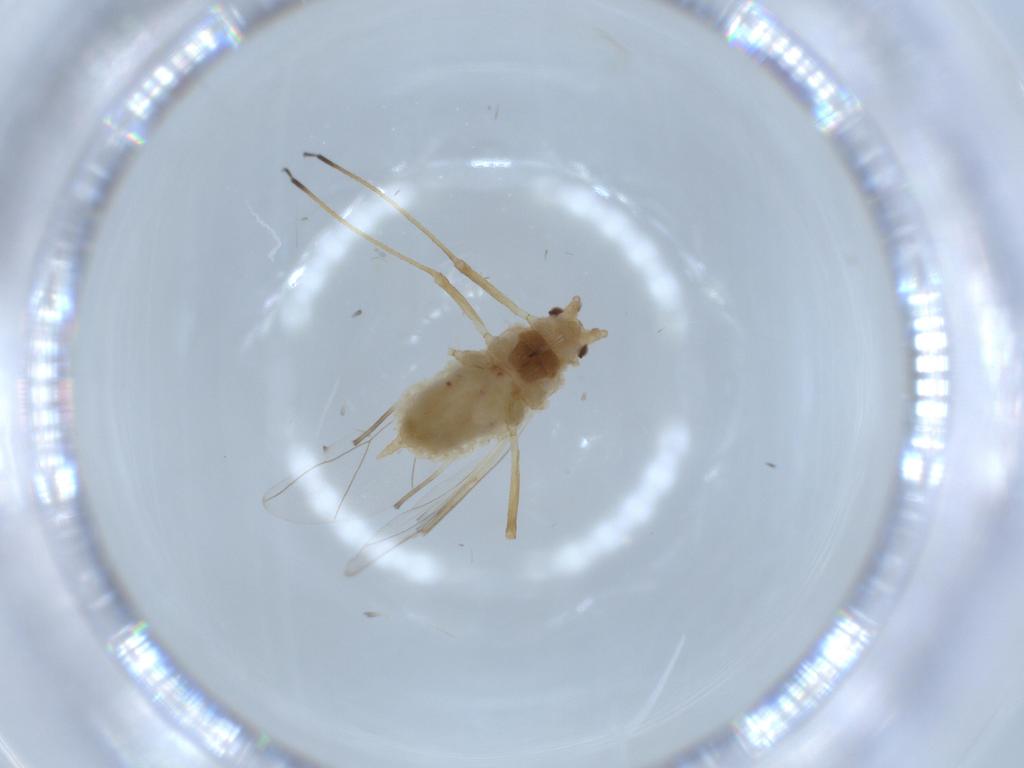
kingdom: Animalia
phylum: Arthropoda
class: Insecta
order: Hemiptera
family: Aphididae
